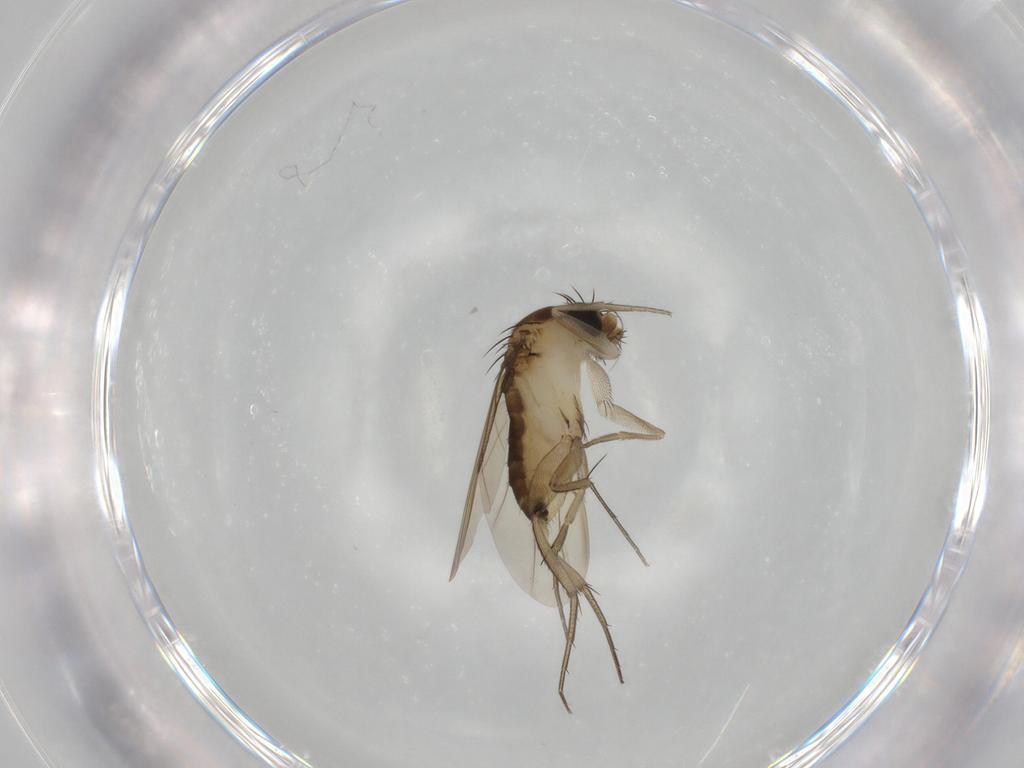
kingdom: Animalia
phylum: Arthropoda
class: Insecta
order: Diptera
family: Phoridae
